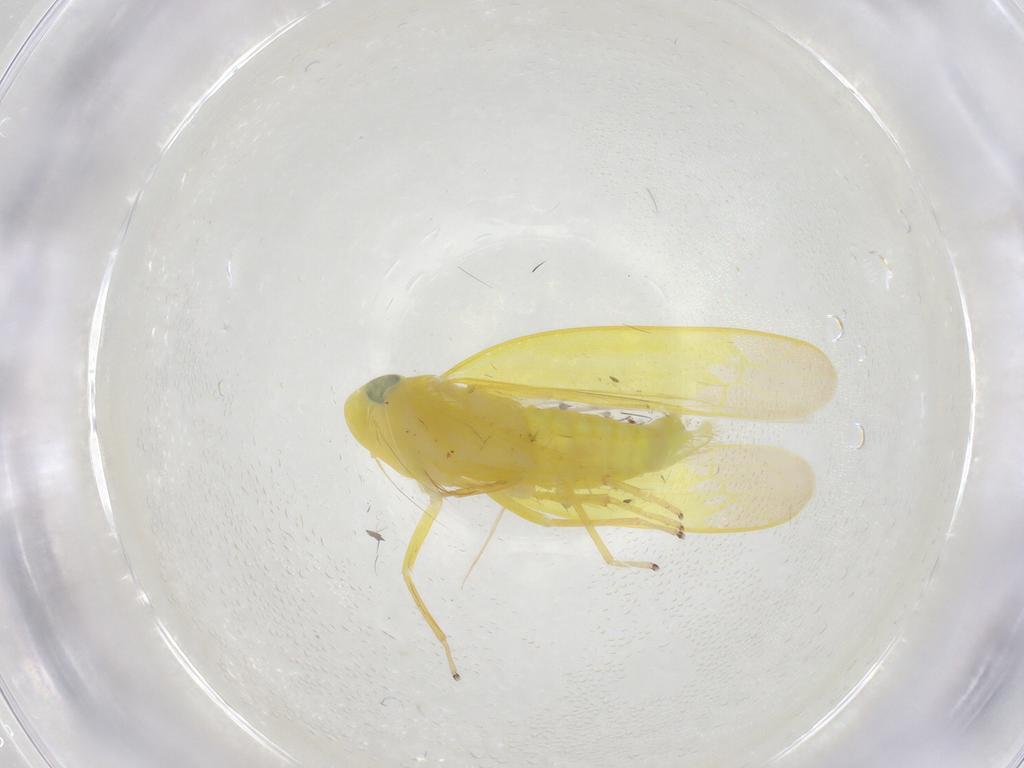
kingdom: Animalia
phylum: Arthropoda
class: Insecta
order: Hemiptera
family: Cicadellidae
